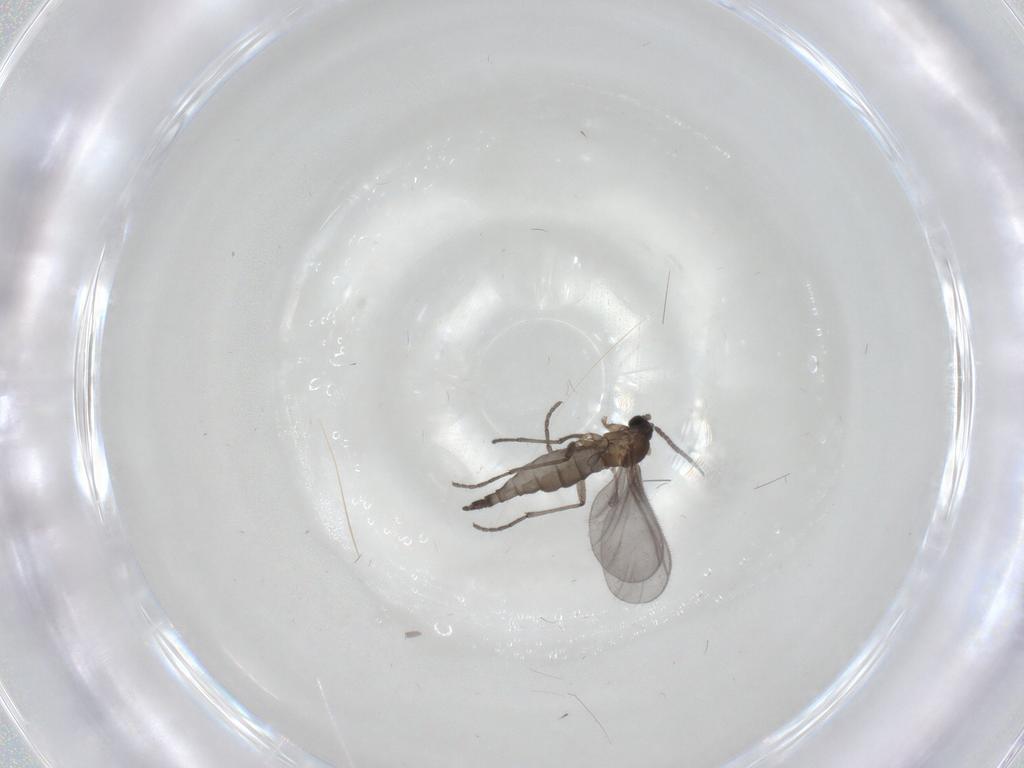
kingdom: Animalia
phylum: Arthropoda
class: Insecta
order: Diptera
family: Sciaridae
